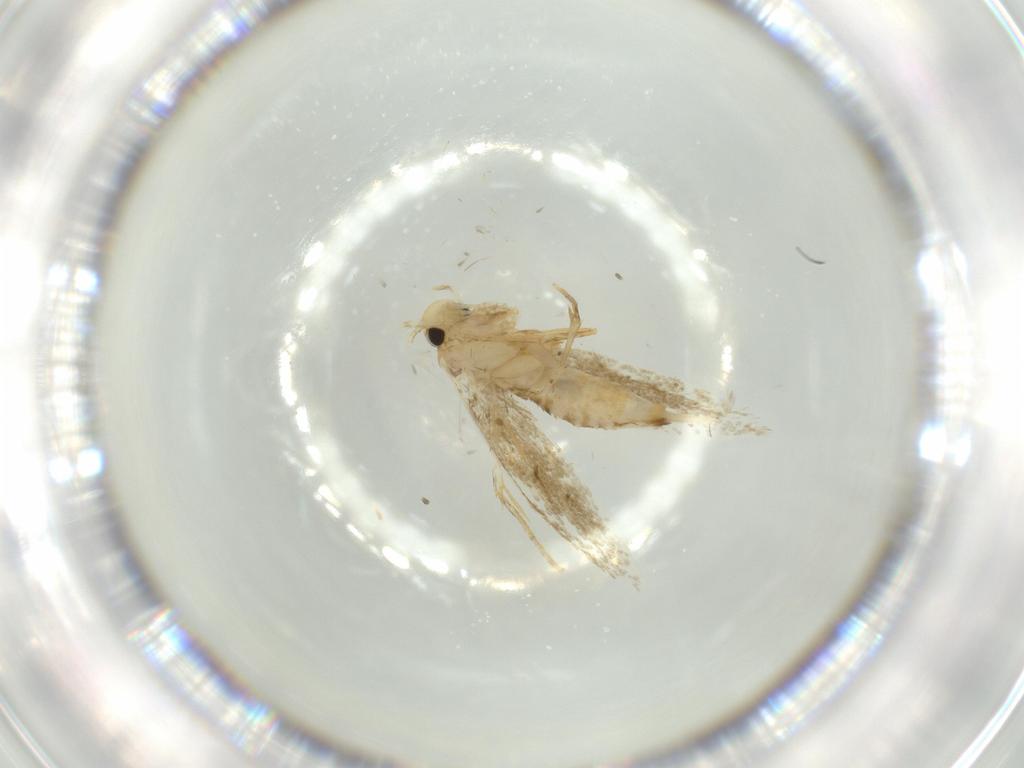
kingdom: Animalia
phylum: Arthropoda
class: Insecta
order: Lepidoptera
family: Tineidae
